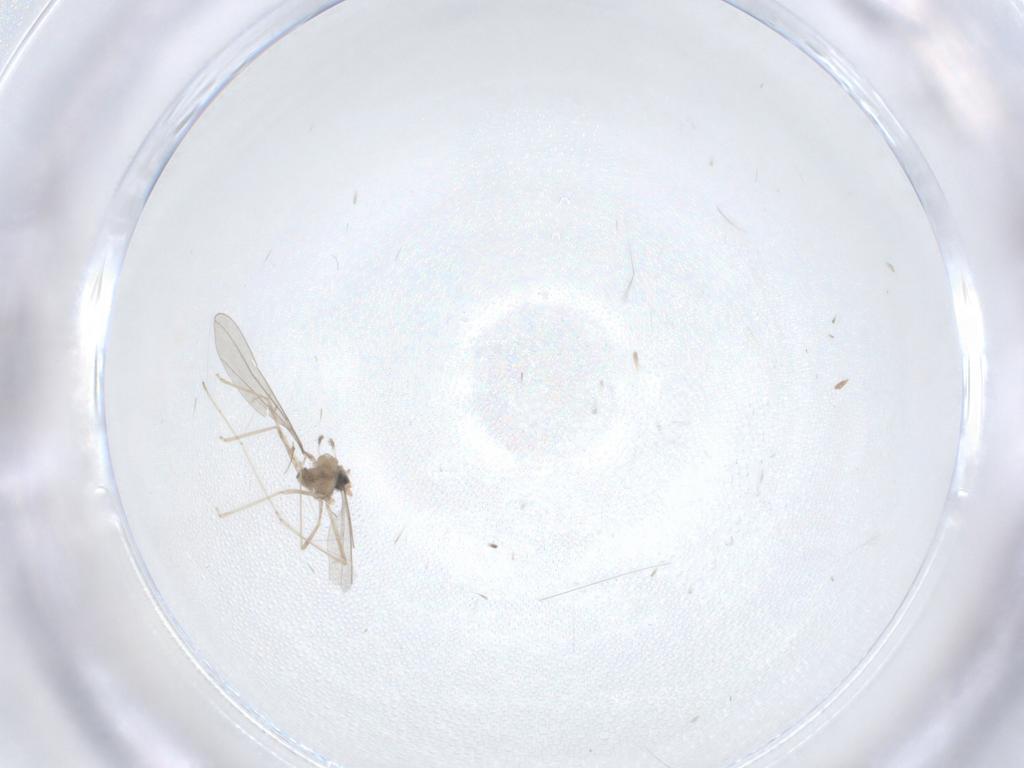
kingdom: Animalia
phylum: Arthropoda
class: Insecta
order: Diptera
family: Cecidomyiidae
